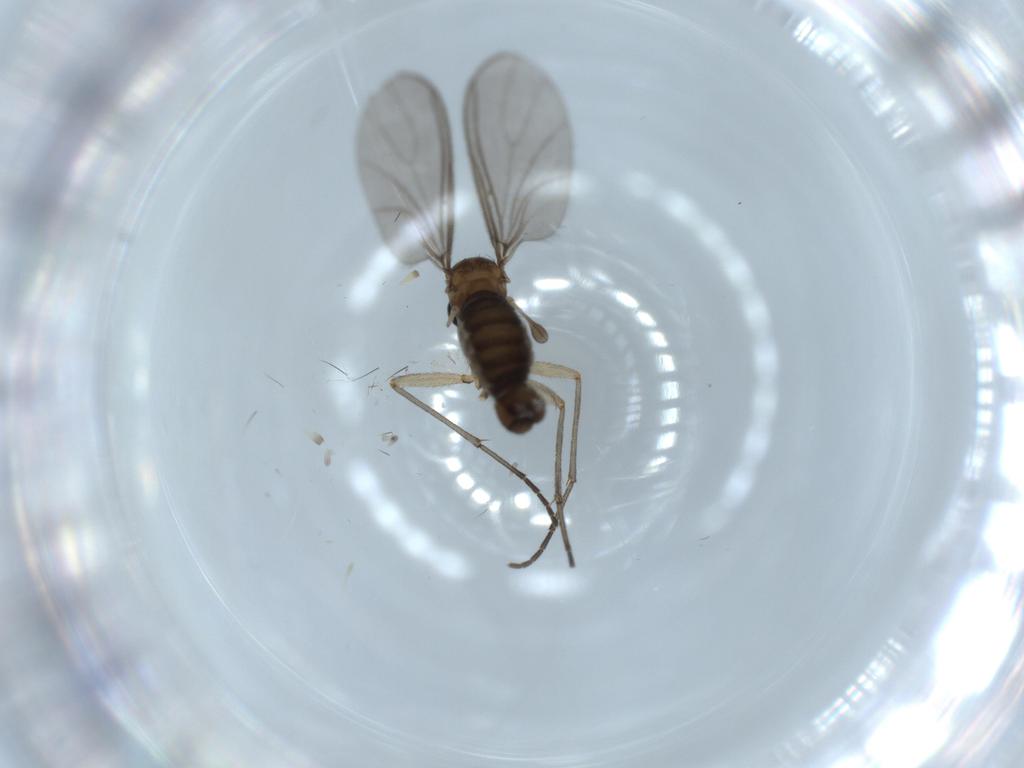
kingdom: Animalia
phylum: Arthropoda
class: Insecta
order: Diptera
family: Sciaridae
